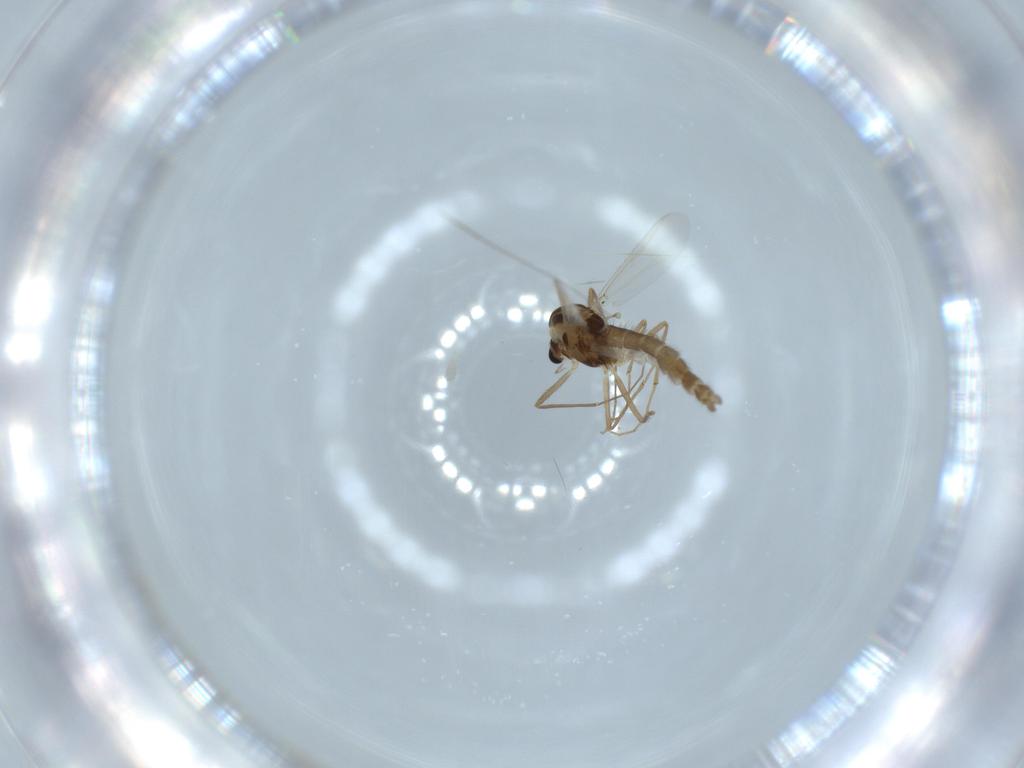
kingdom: Animalia
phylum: Arthropoda
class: Insecta
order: Diptera
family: Chironomidae
